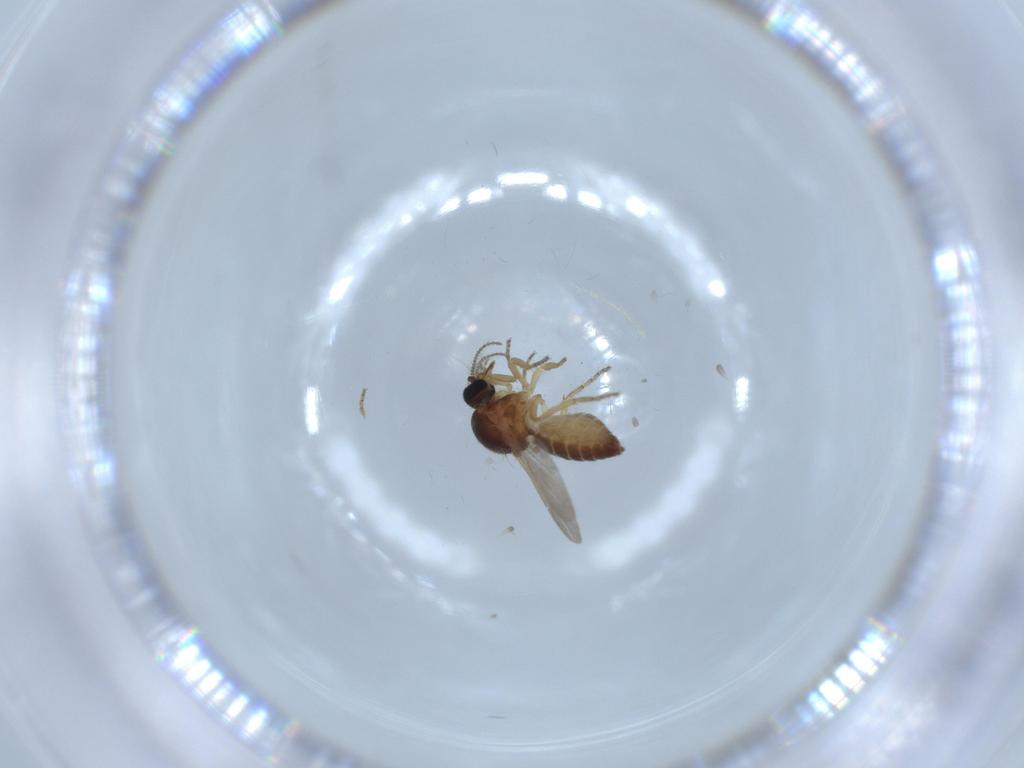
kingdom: Animalia
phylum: Arthropoda
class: Insecta
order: Diptera
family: Ceratopogonidae
